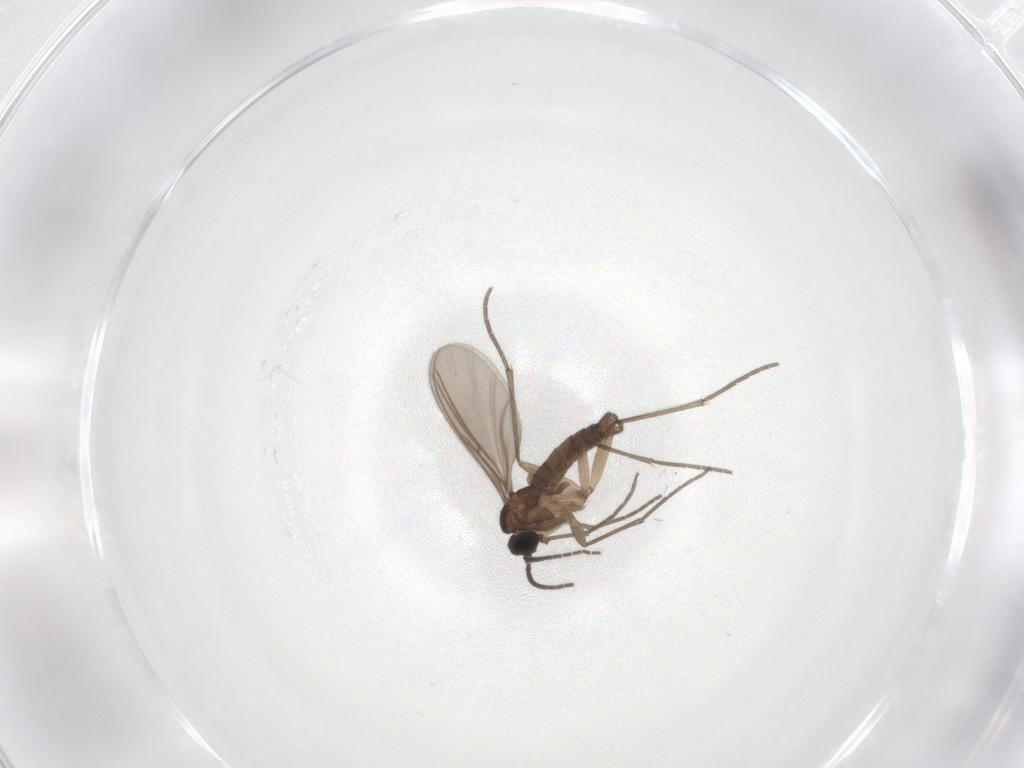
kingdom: Animalia
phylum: Arthropoda
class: Insecta
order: Diptera
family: Sciaridae
